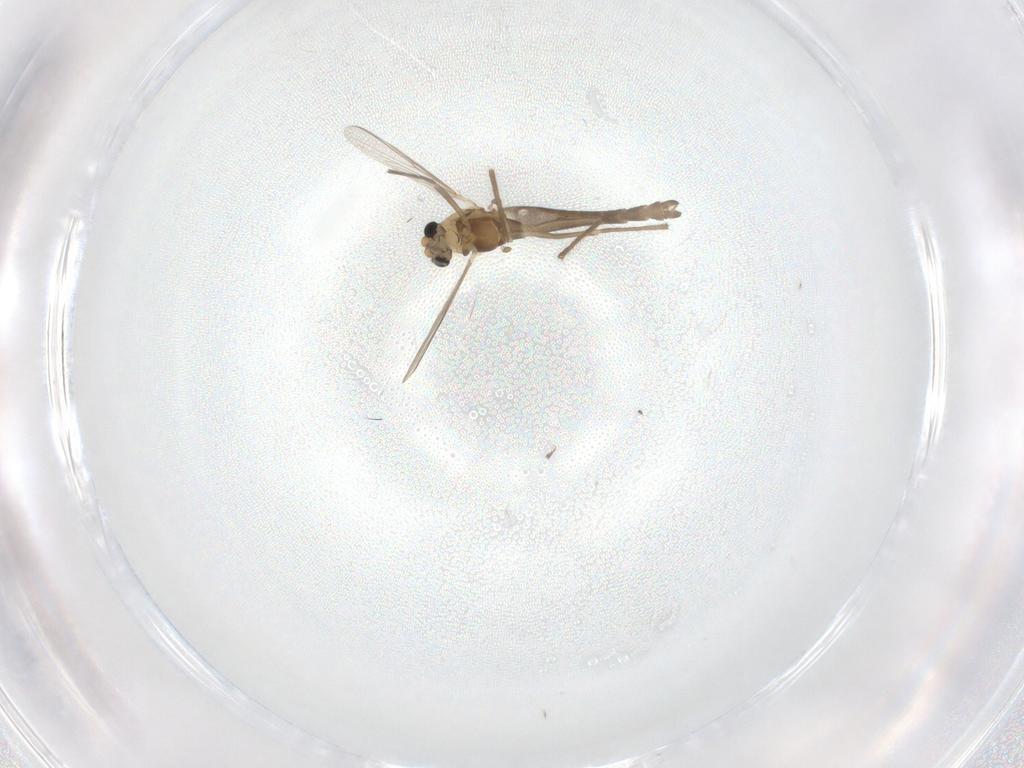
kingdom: Animalia
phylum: Arthropoda
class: Insecta
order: Diptera
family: Chironomidae
